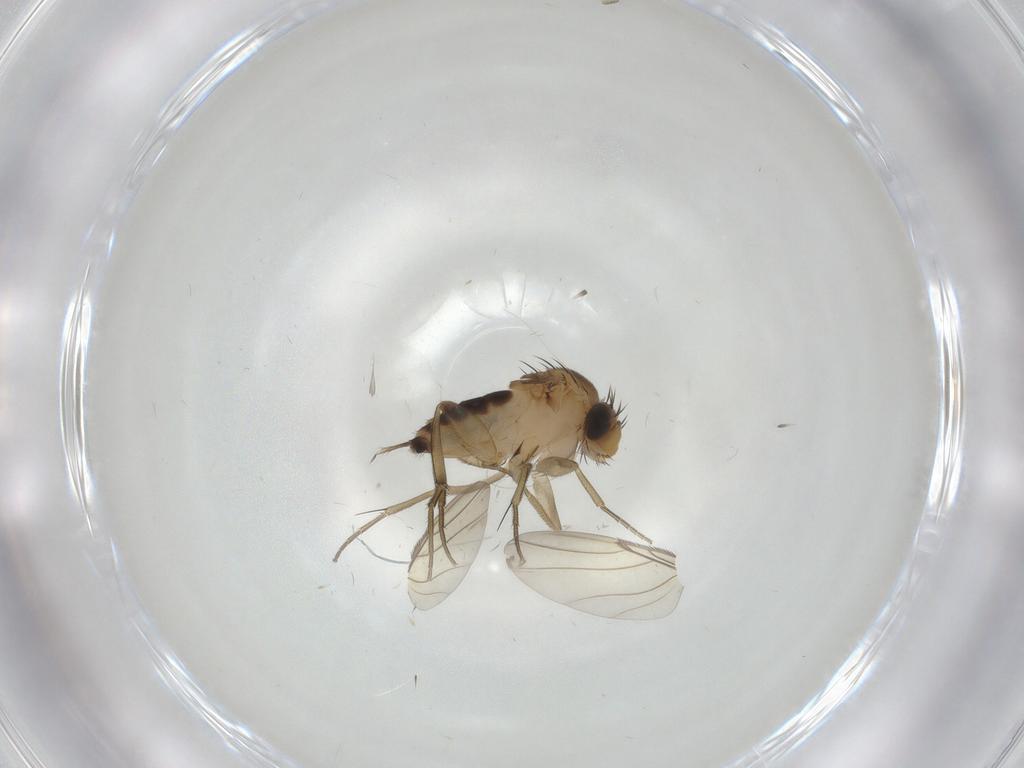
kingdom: Animalia
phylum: Arthropoda
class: Insecta
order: Diptera
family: Phoridae
